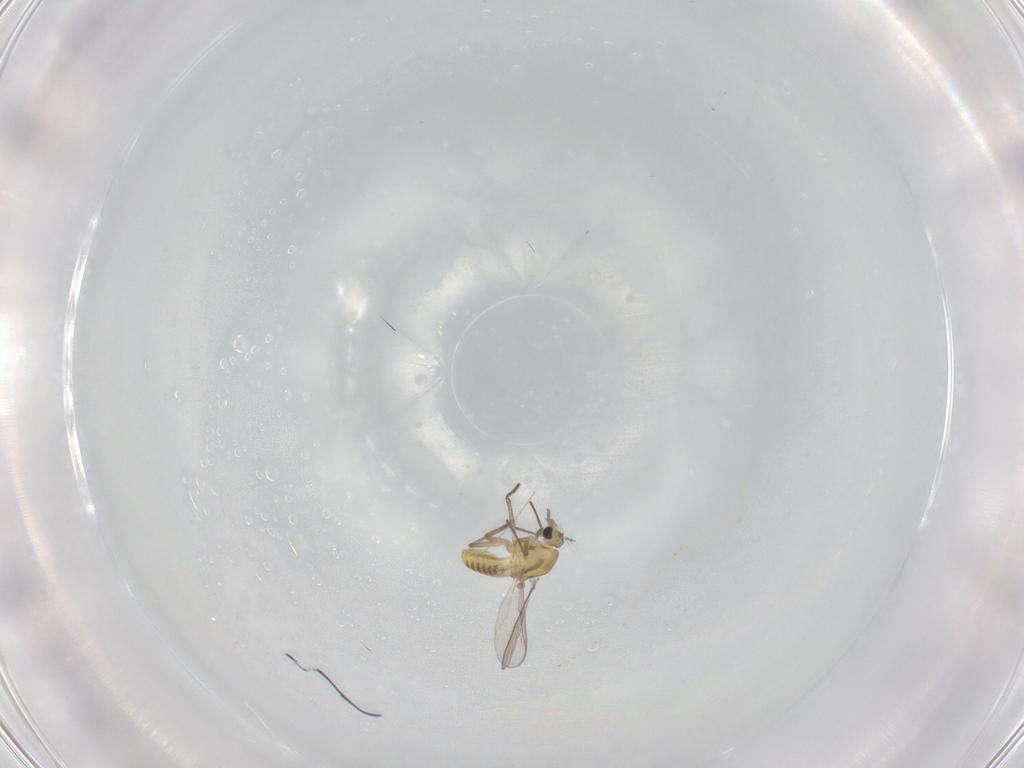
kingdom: Animalia
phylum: Arthropoda
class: Insecta
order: Diptera
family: Chironomidae
